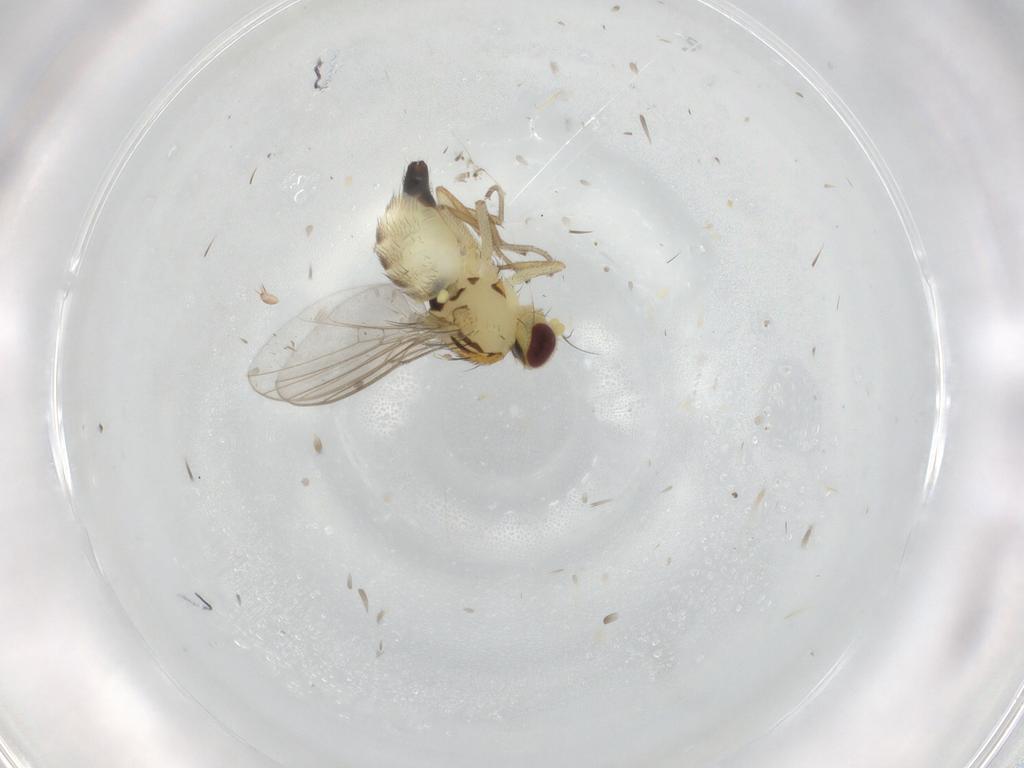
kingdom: Animalia
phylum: Arthropoda
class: Insecta
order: Diptera
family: Agromyzidae
